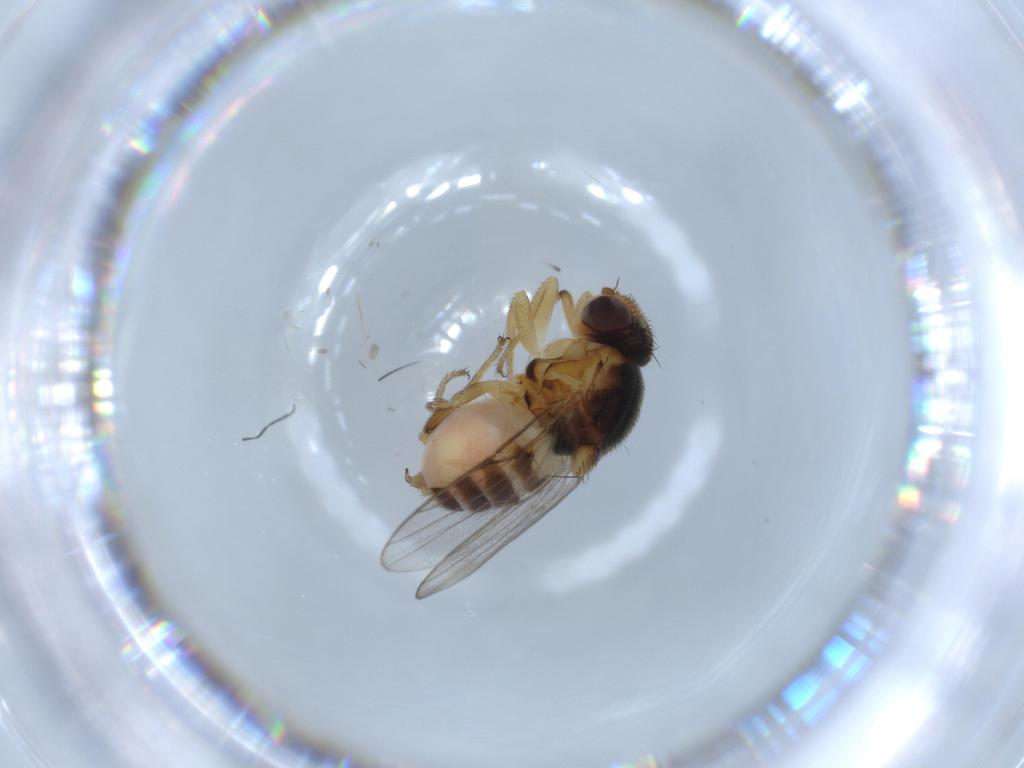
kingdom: Animalia
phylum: Arthropoda
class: Insecta
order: Diptera
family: Chloropidae
